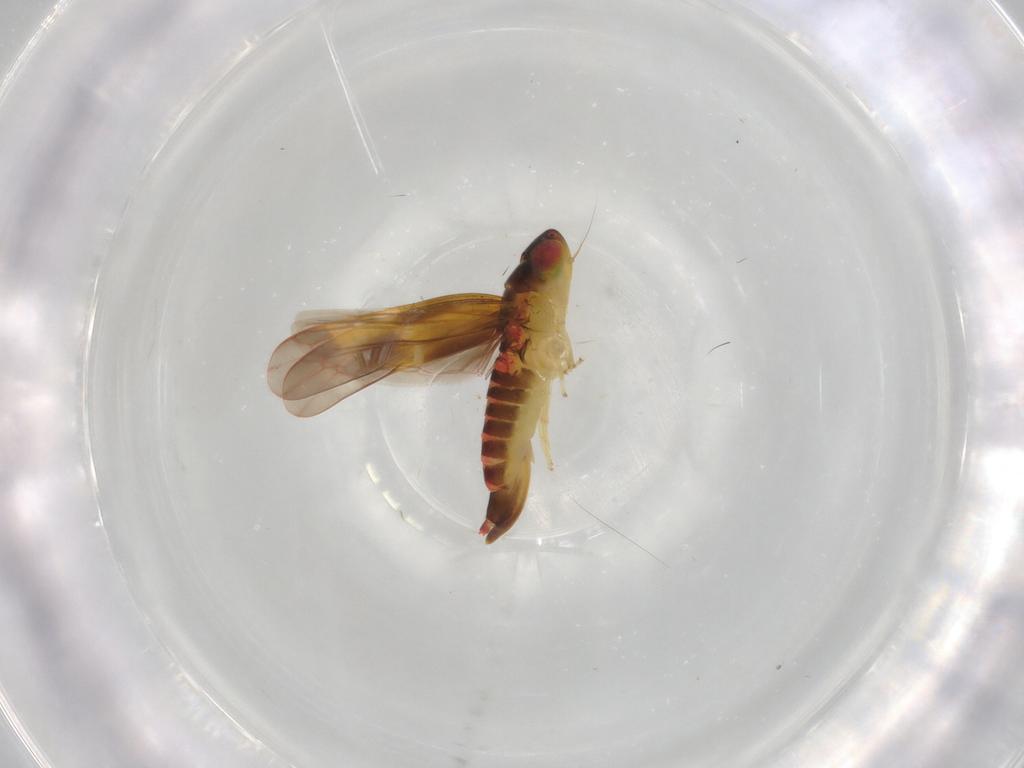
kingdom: Animalia
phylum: Arthropoda
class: Insecta
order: Hemiptera
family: Cicadellidae
